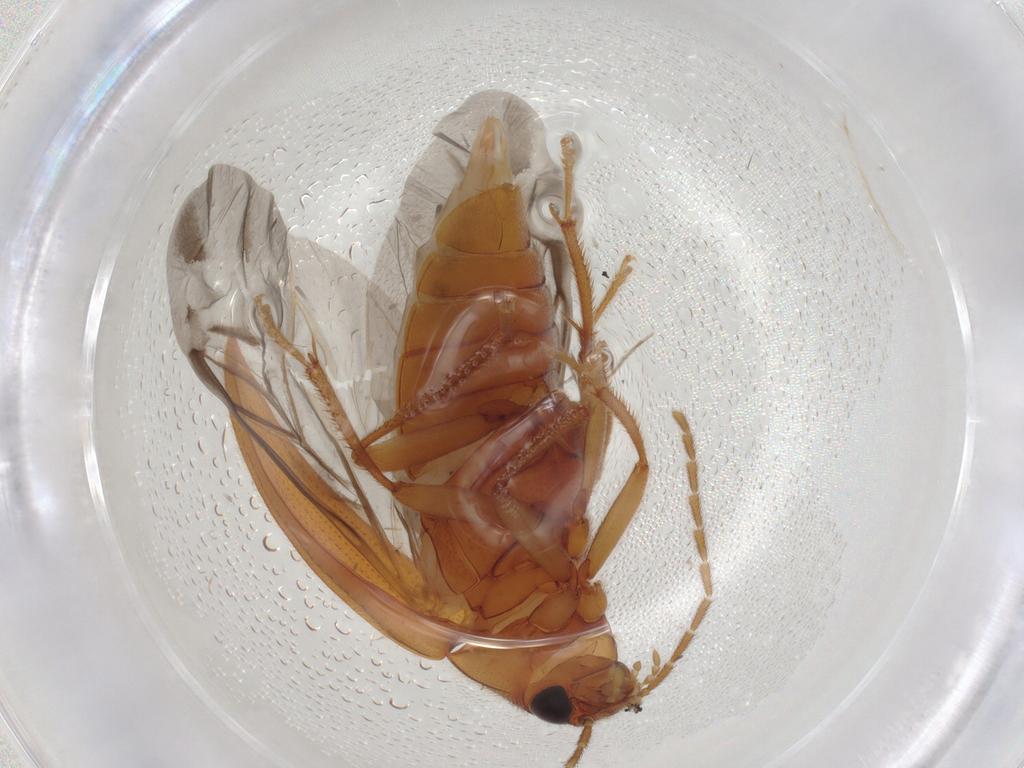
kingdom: Animalia
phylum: Arthropoda
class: Insecta
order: Coleoptera
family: Ptilodactylidae
